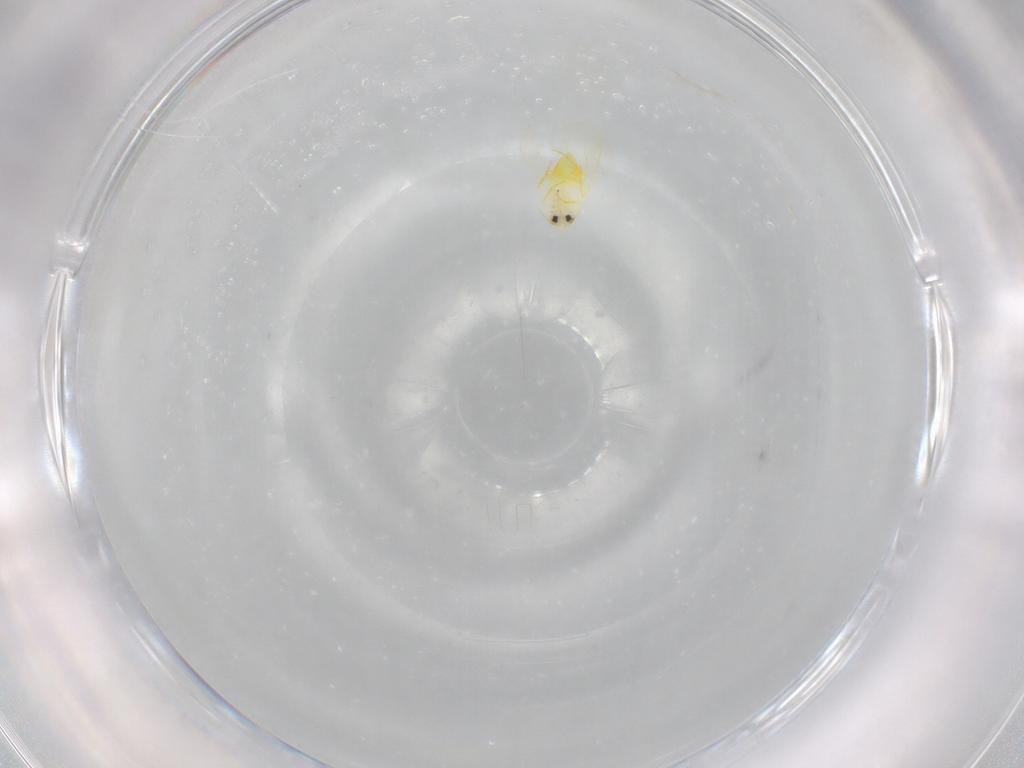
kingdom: Animalia
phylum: Arthropoda
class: Insecta
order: Hemiptera
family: Aleyrodidae
